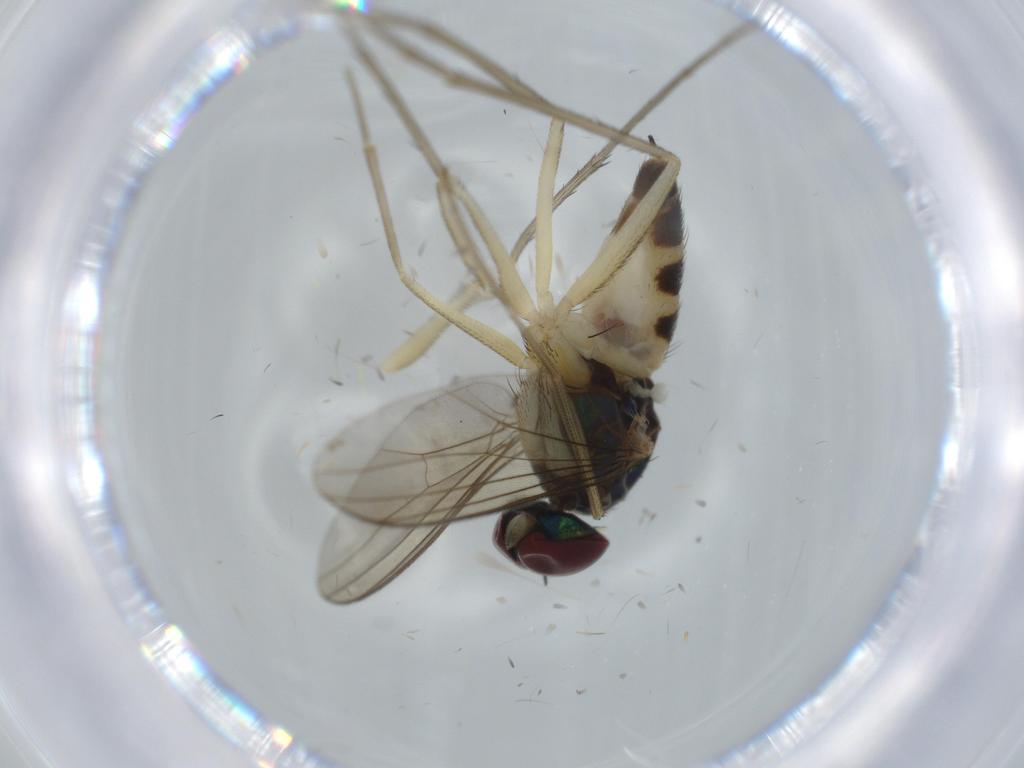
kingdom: Animalia
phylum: Arthropoda
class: Insecta
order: Diptera
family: Dolichopodidae
